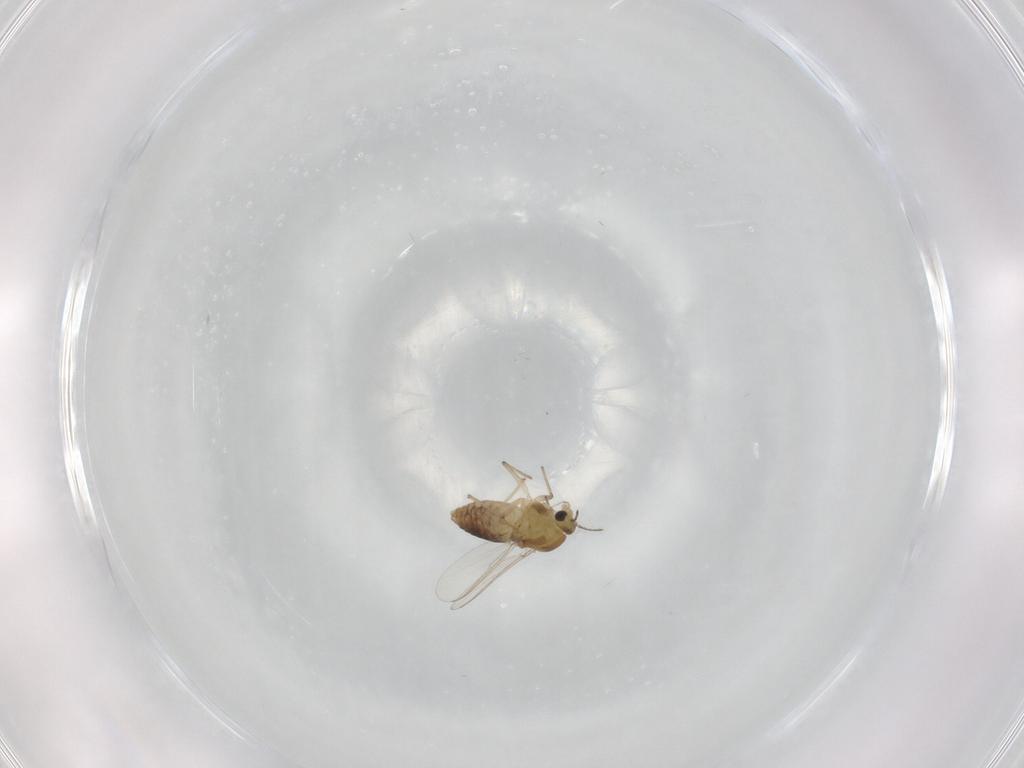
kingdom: Animalia
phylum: Arthropoda
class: Insecta
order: Diptera
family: Chironomidae
